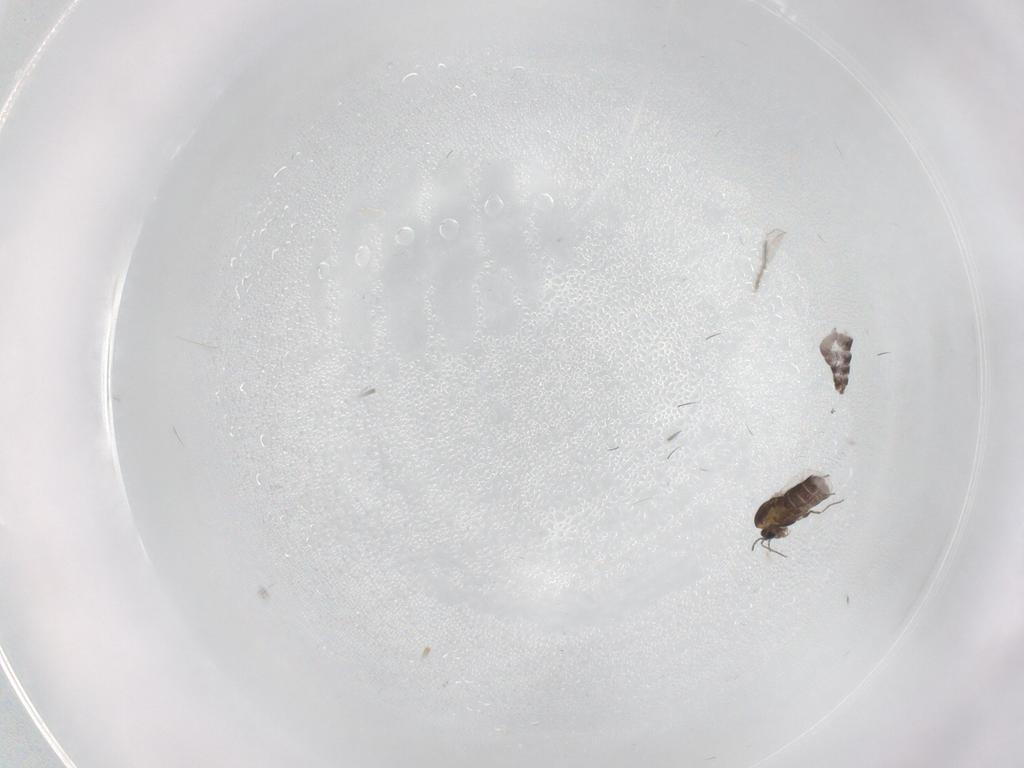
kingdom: Animalia
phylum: Arthropoda
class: Insecta
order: Diptera
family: Chironomidae
